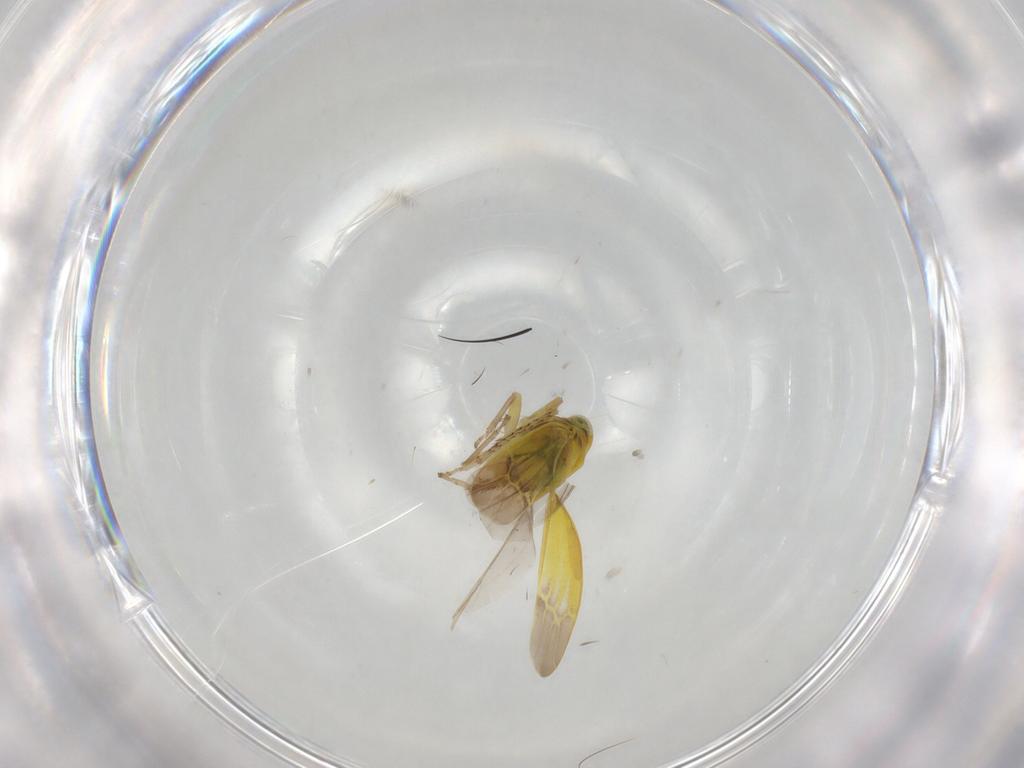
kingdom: Animalia
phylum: Arthropoda
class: Insecta
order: Hemiptera
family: Cicadellidae
